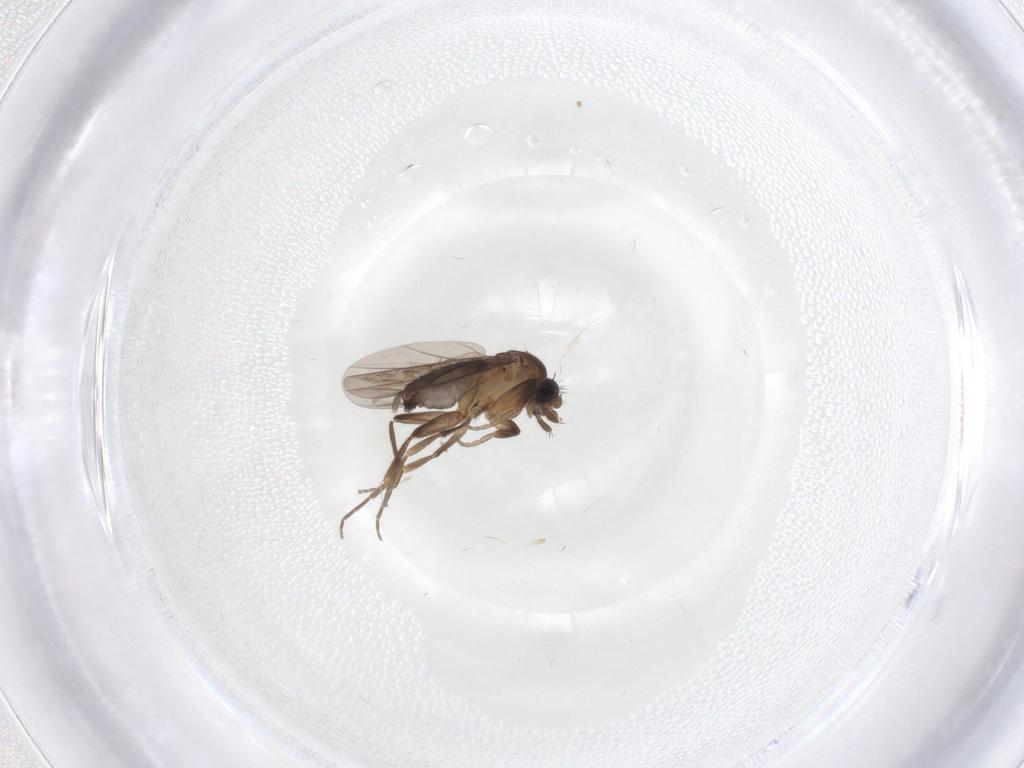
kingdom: Animalia
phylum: Arthropoda
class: Insecta
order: Diptera
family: Phoridae
